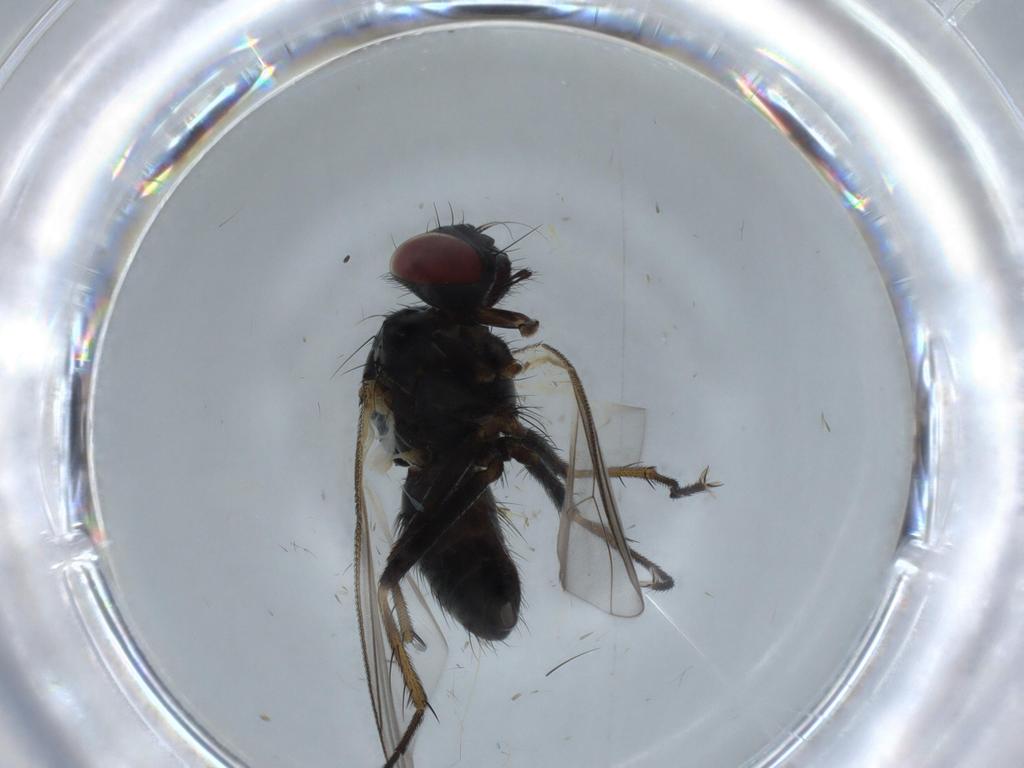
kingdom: Animalia
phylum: Arthropoda
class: Insecta
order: Diptera
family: Muscidae
